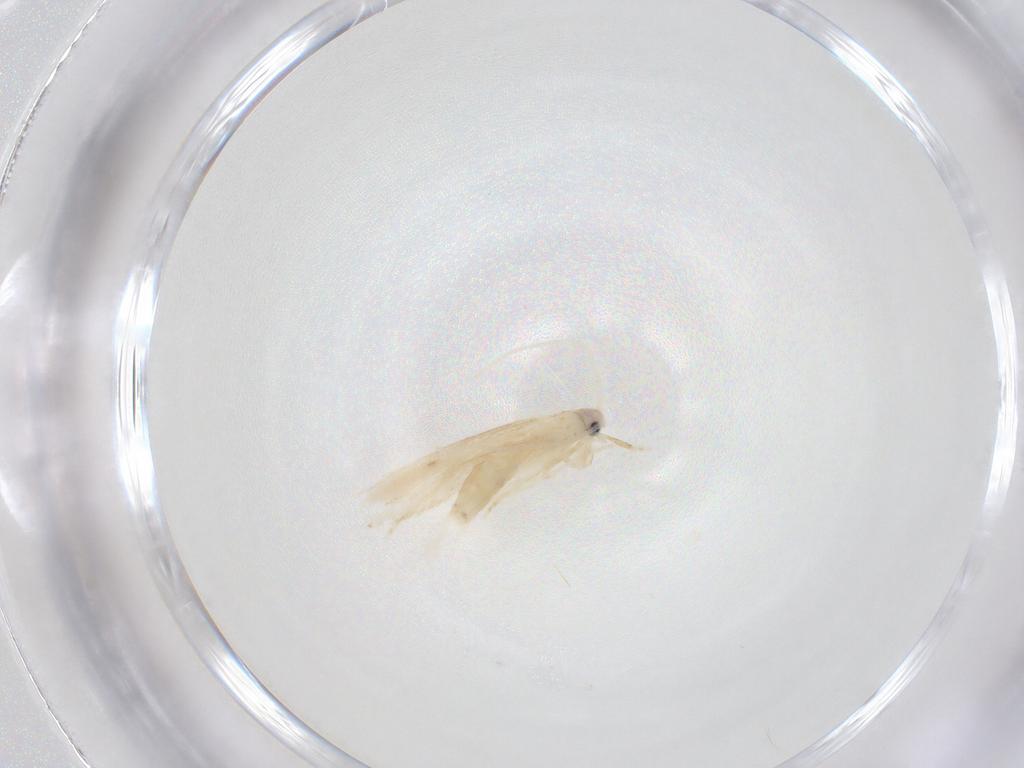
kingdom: Animalia
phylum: Arthropoda
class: Insecta
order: Lepidoptera
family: Tineidae
